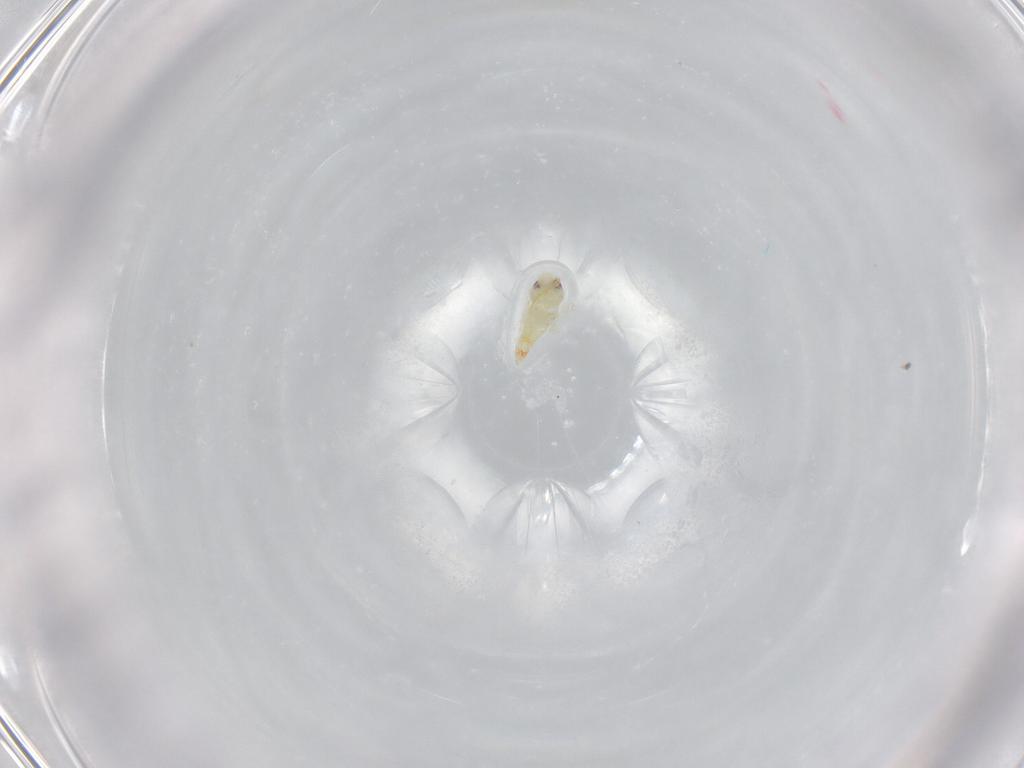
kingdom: Animalia
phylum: Arthropoda
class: Insecta
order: Hemiptera
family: Aleyrodidae
